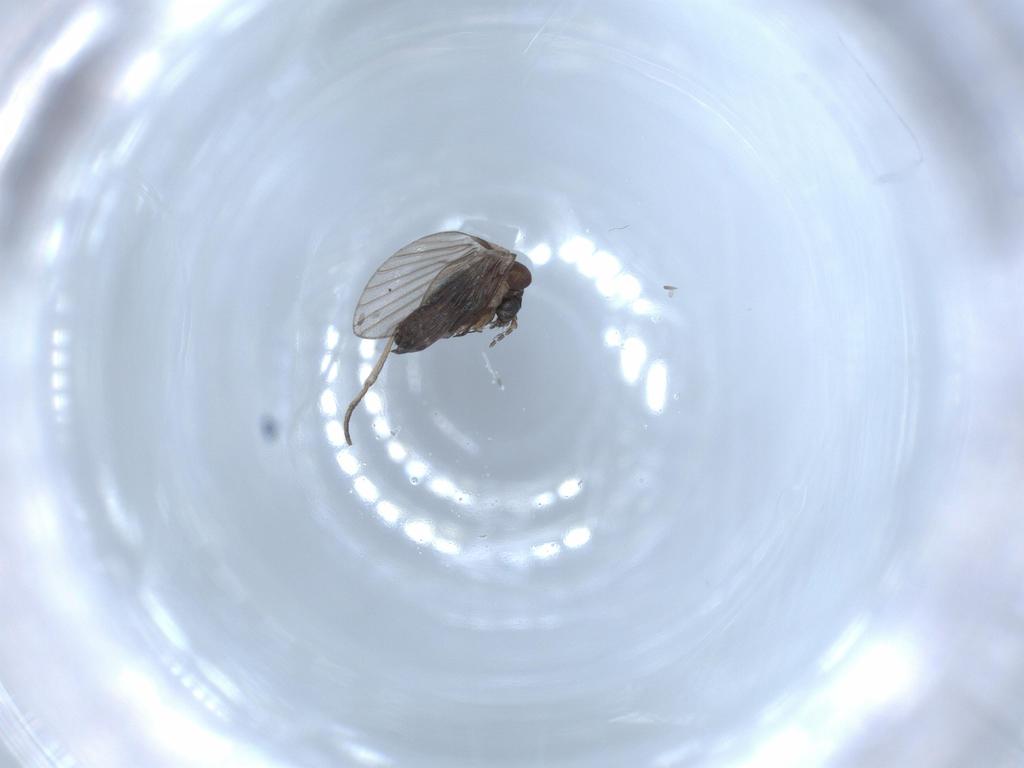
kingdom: Animalia
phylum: Arthropoda
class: Insecta
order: Diptera
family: Psychodidae
